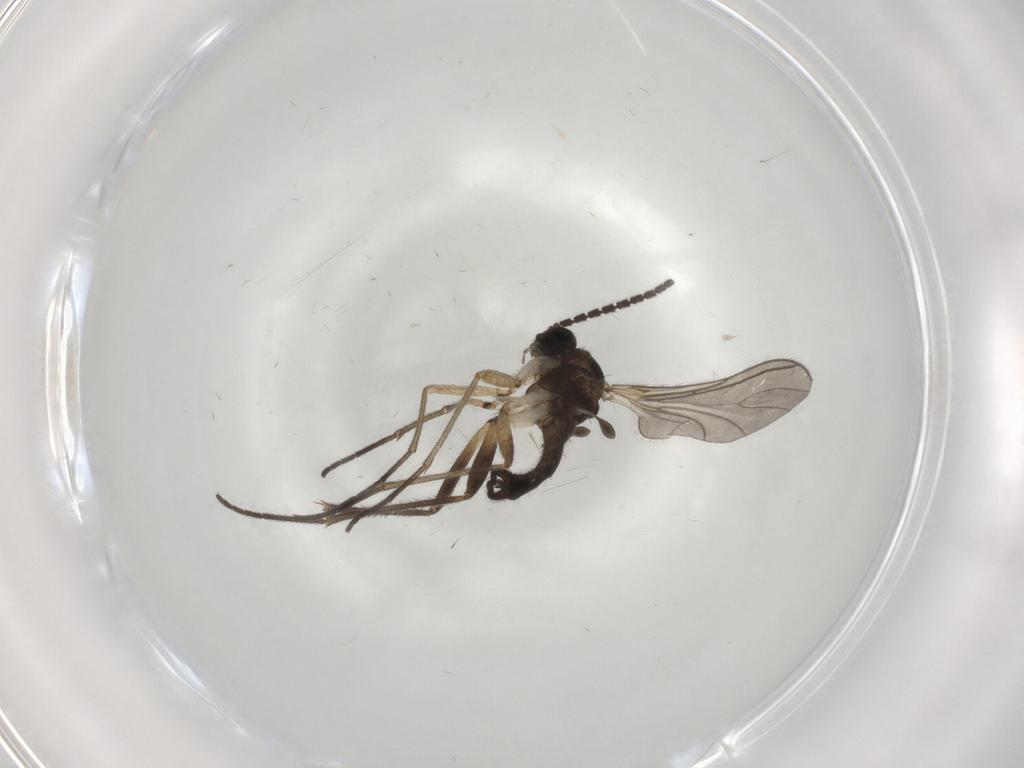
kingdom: Animalia
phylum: Arthropoda
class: Insecta
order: Diptera
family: Sciaridae
